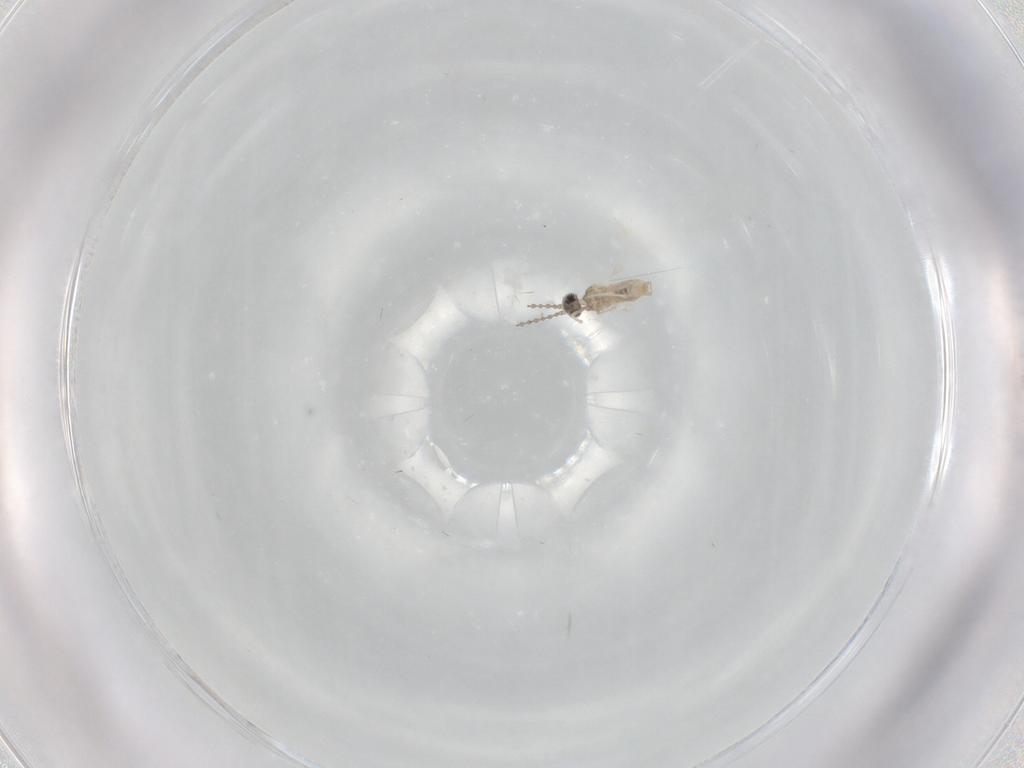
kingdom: Animalia
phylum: Arthropoda
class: Insecta
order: Diptera
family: Cecidomyiidae
